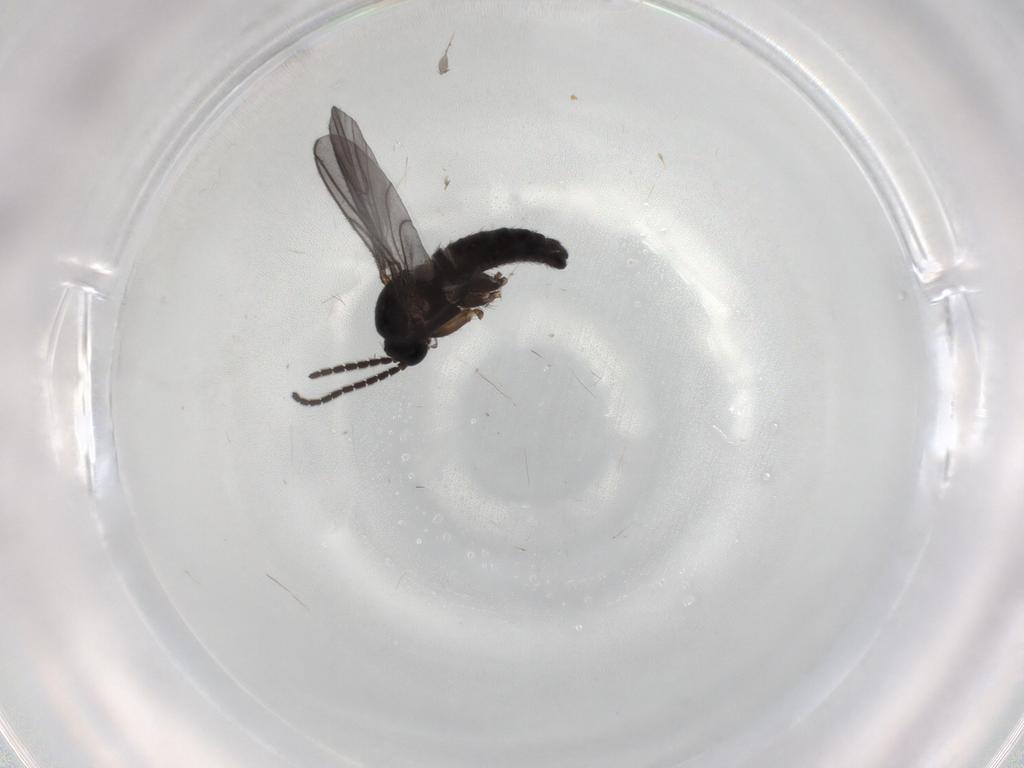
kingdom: Animalia
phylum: Arthropoda
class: Insecta
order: Diptera
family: Sciaridae
